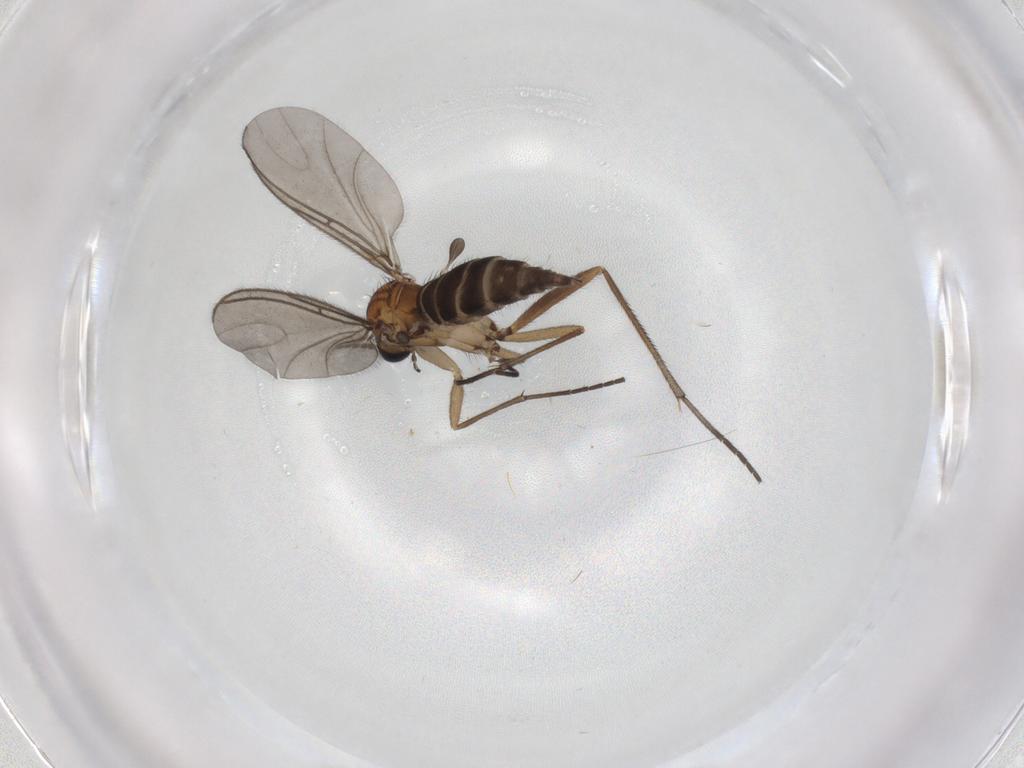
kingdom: Animalia
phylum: Arthropoda
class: Insecta
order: Diptera
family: Sciaridae
